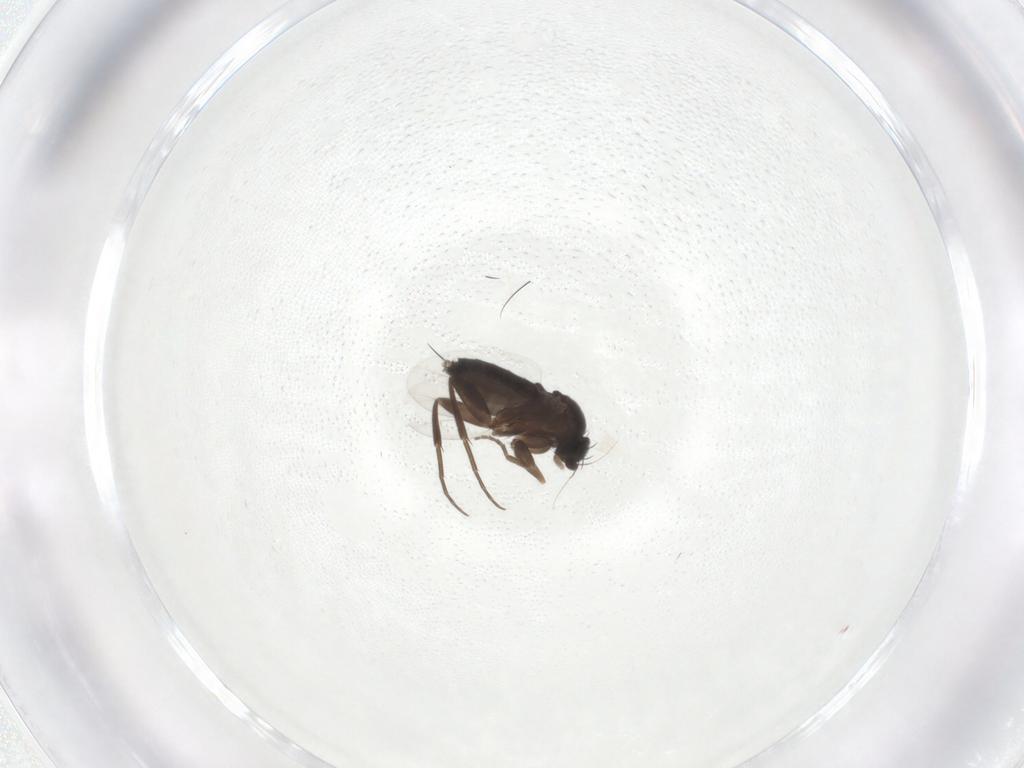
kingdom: Animalia
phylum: Arthropoda
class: Insecta
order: Diptera
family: Phoridae
